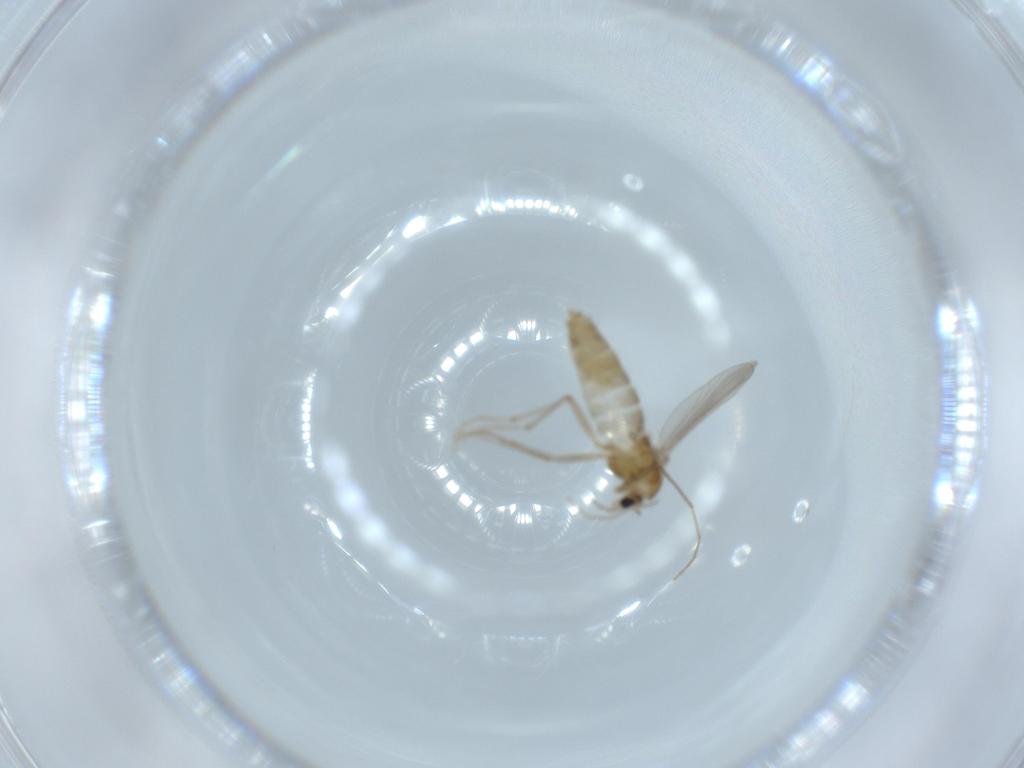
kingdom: Animalia
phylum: Arthropoda
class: Insecta
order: Diptera
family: Chironomidae
